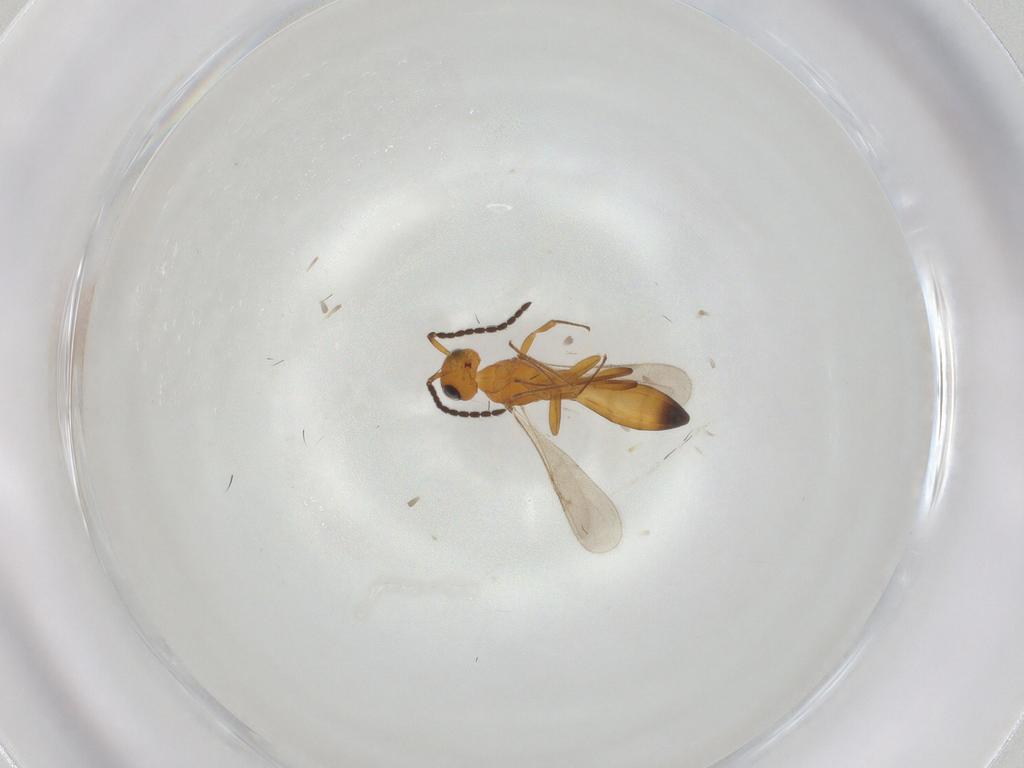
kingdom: Animalia
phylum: Arthropoda
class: Insecta
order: Hymenoptera
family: Scelionidae
